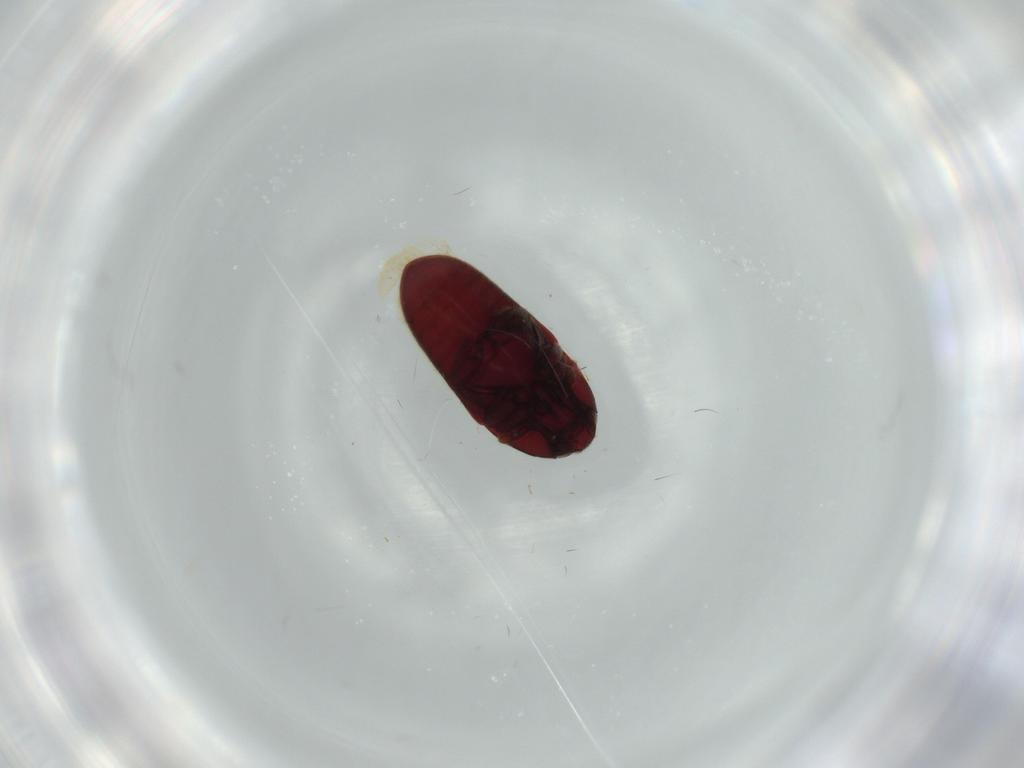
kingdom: Animalia
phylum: Arthropoda
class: Insecta
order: Coleoptera
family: Throscidae
